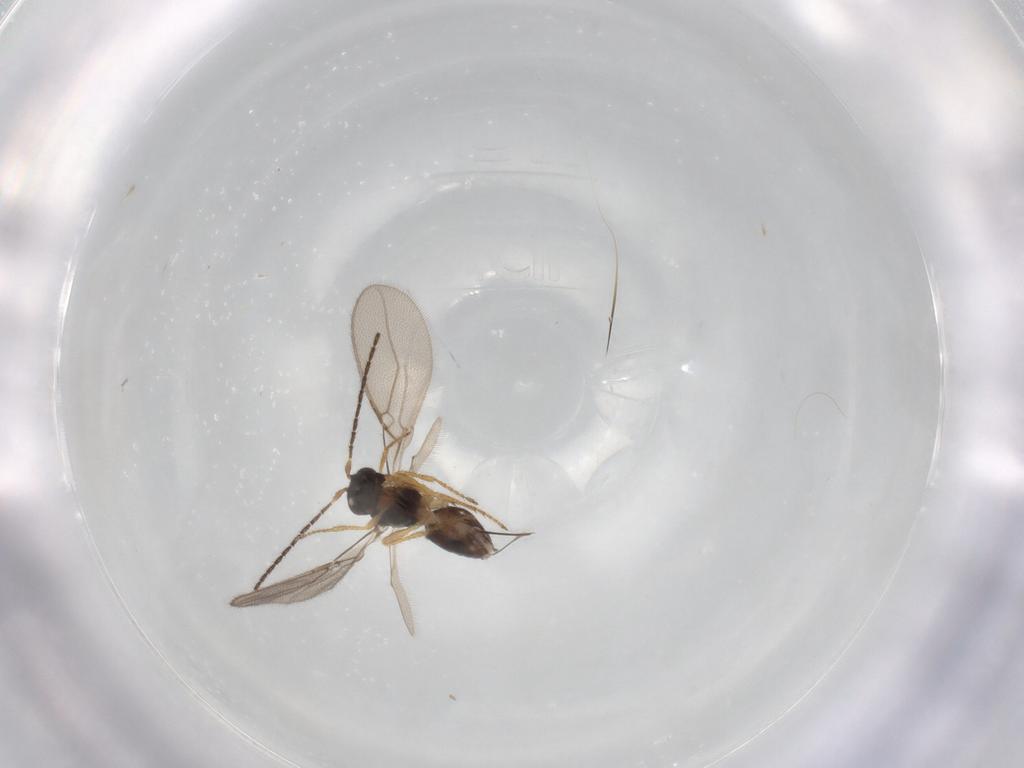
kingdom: Animalia
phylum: Arthropoda
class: Insecta
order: Hymenoptera
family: Braconidae
